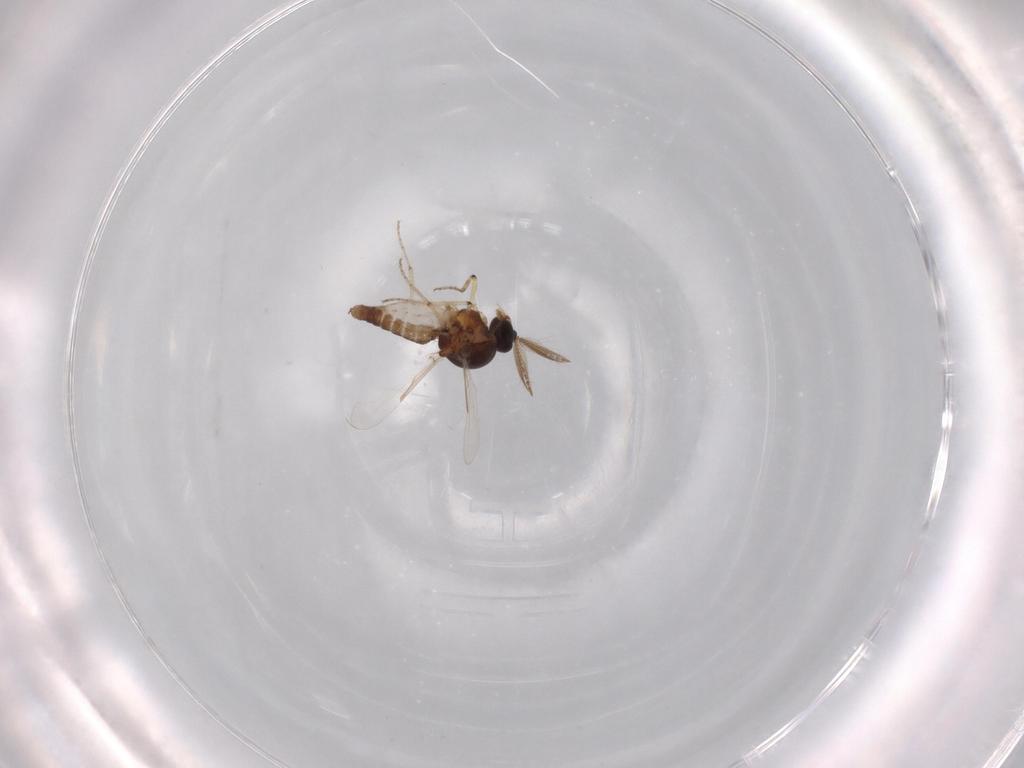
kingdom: Animalia
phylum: Arthropoda
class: Insecta
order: Diptera
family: Cecidomyiidae
